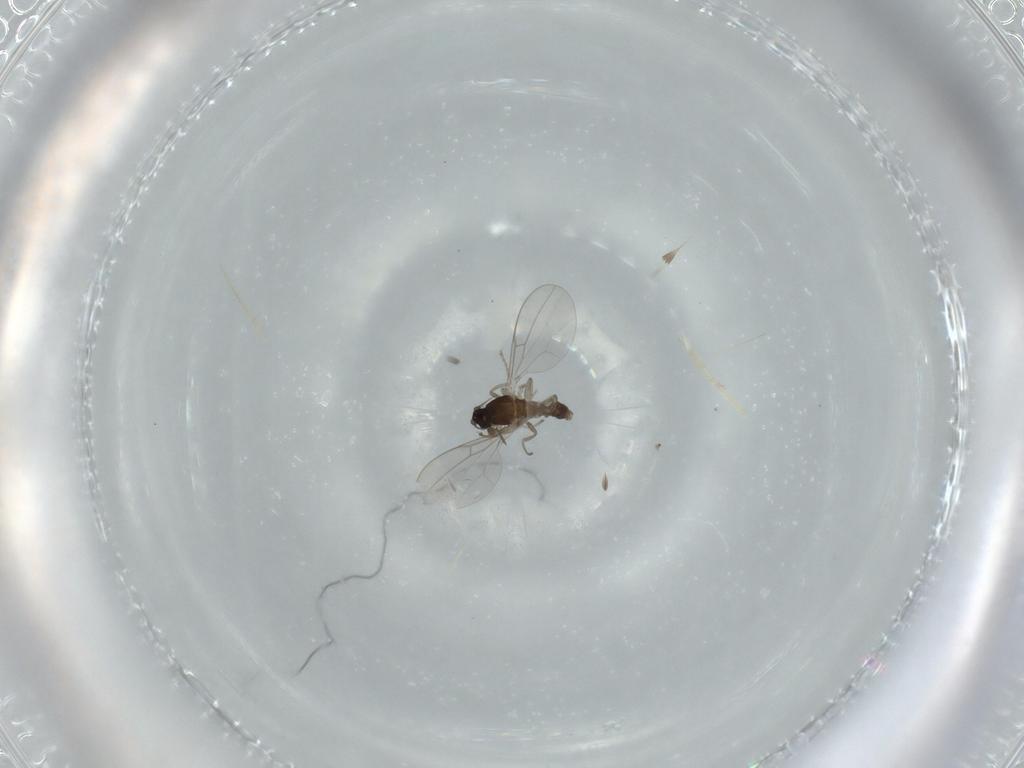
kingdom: Animalia
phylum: Arthropoda
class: Insecta
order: Diptera
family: Cecidomyiidae
